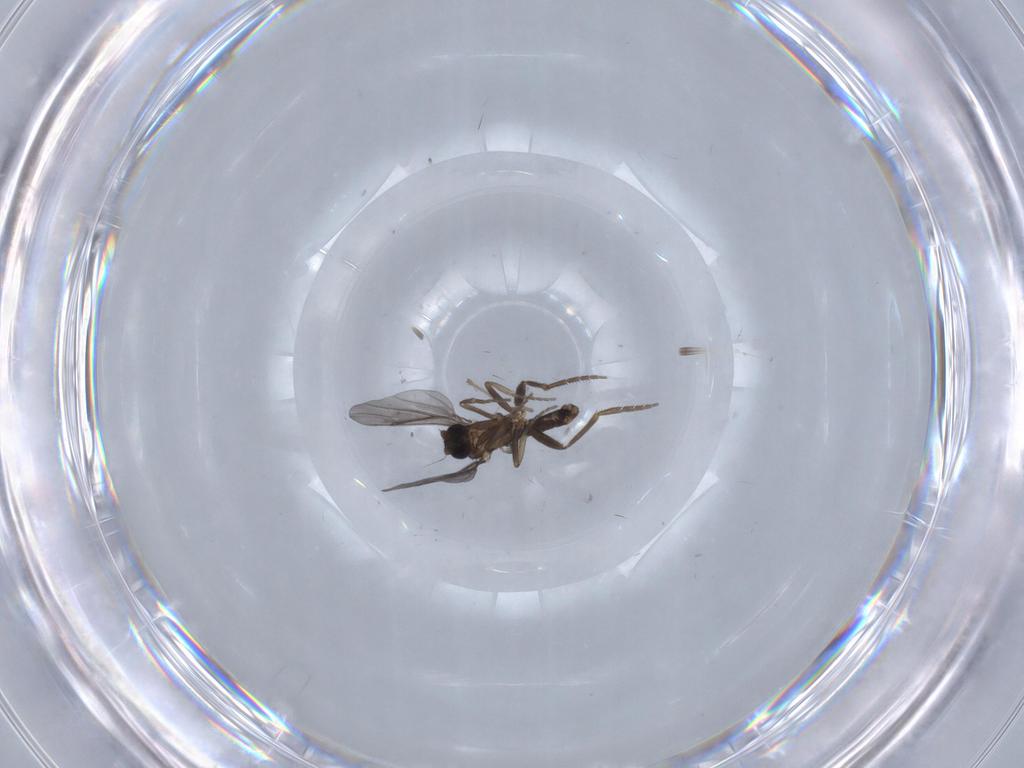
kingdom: Animalia
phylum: Arthropoda
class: Insecta
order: Diptera
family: Chironomidae
